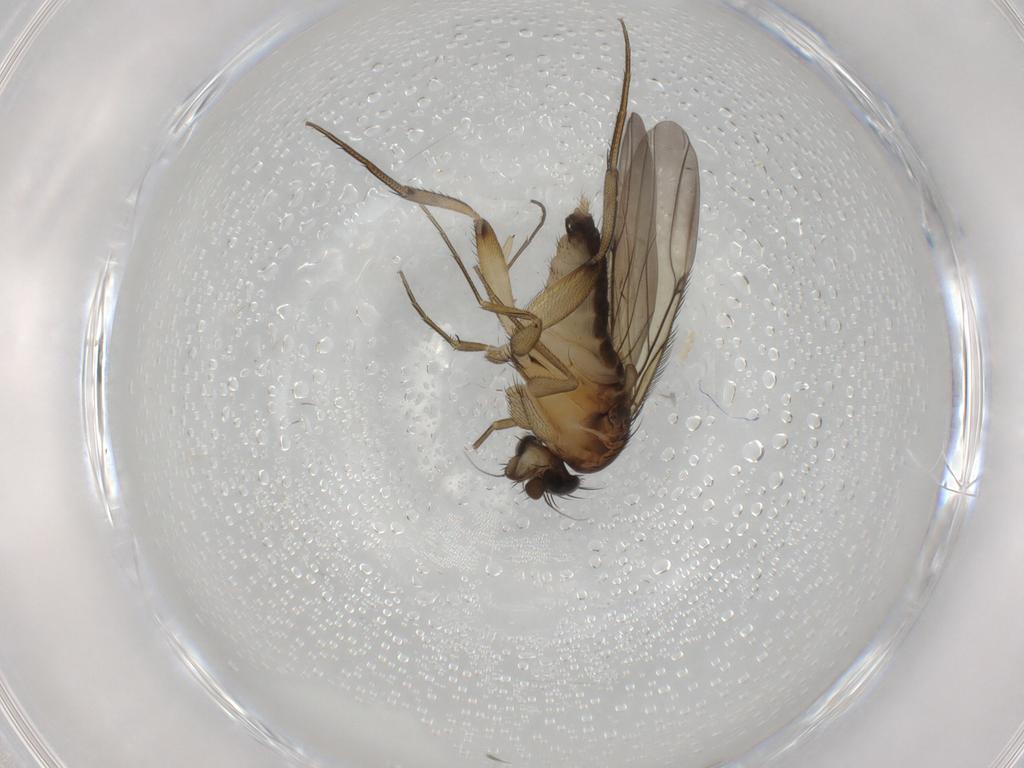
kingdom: Animalia
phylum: Arthropoda
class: Insecta
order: Diptera
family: Phoridae
